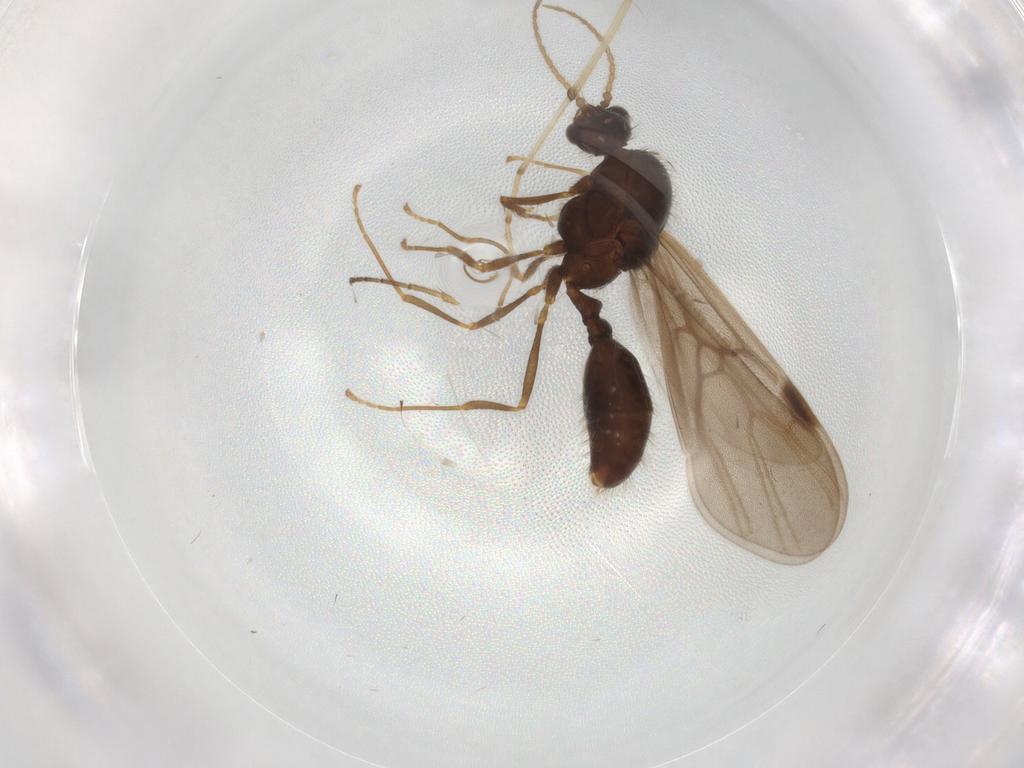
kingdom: Animalia
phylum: Arthropoda
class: Insecta
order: Hymenoptera
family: Formicidae
